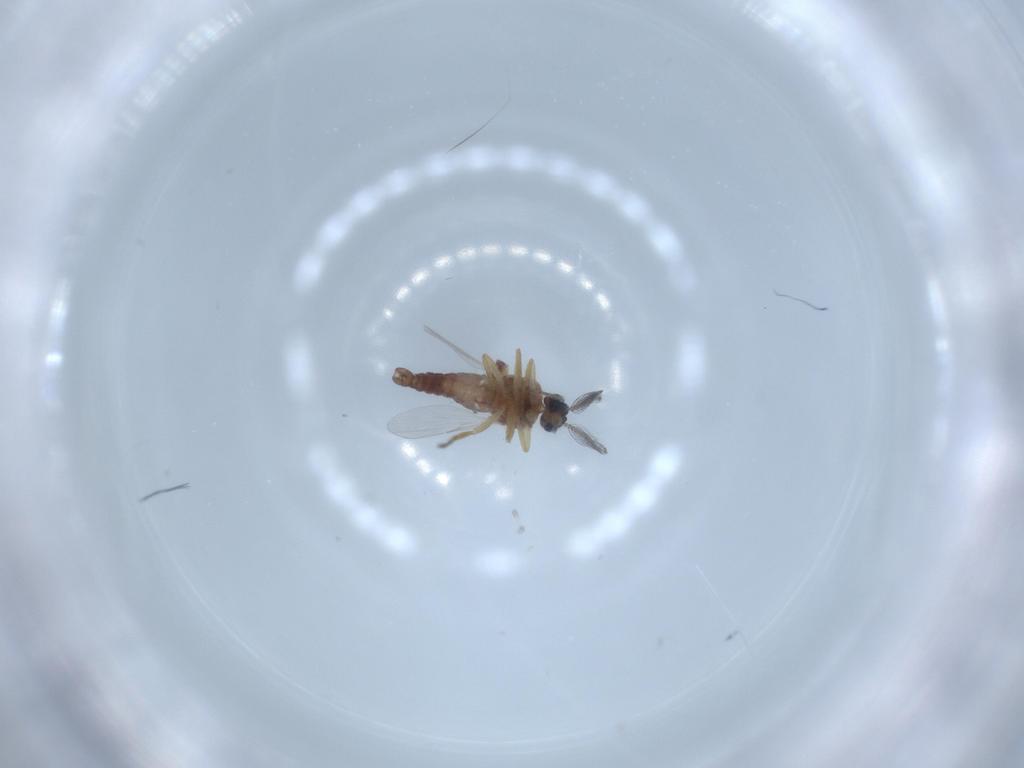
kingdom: Animalia
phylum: Arthropoda
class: Insecta
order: Diptera
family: Ceratopogonidae
